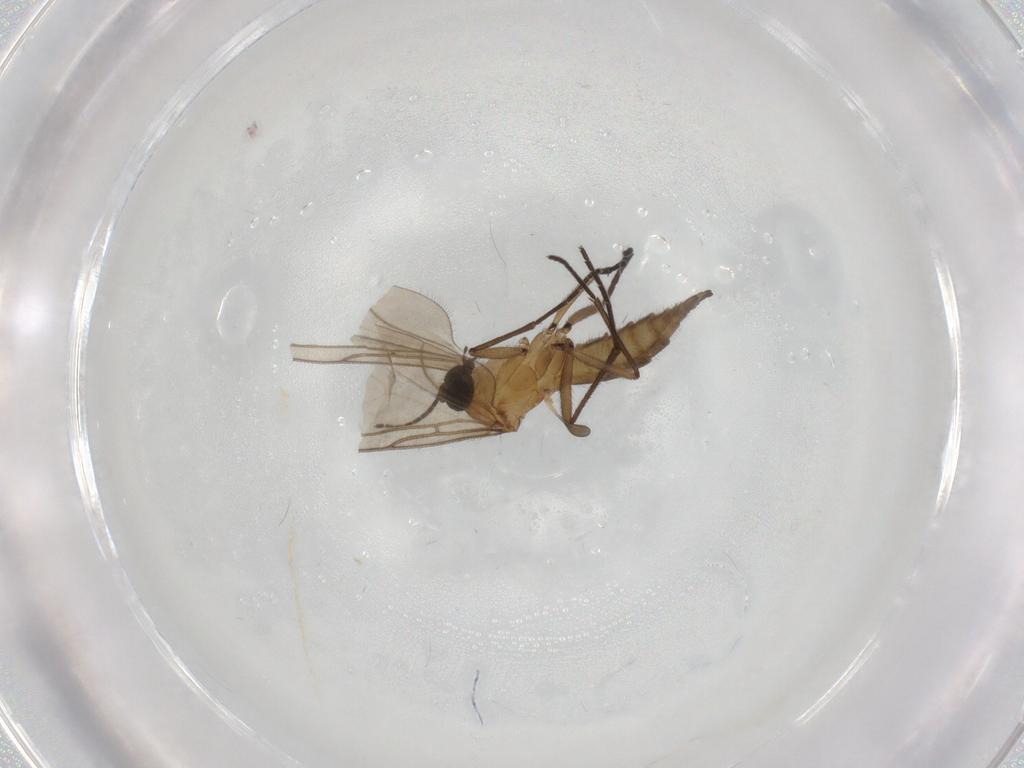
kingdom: Animalia
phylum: Arthropoda
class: Insecta
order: Diptera
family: Sciaridae
